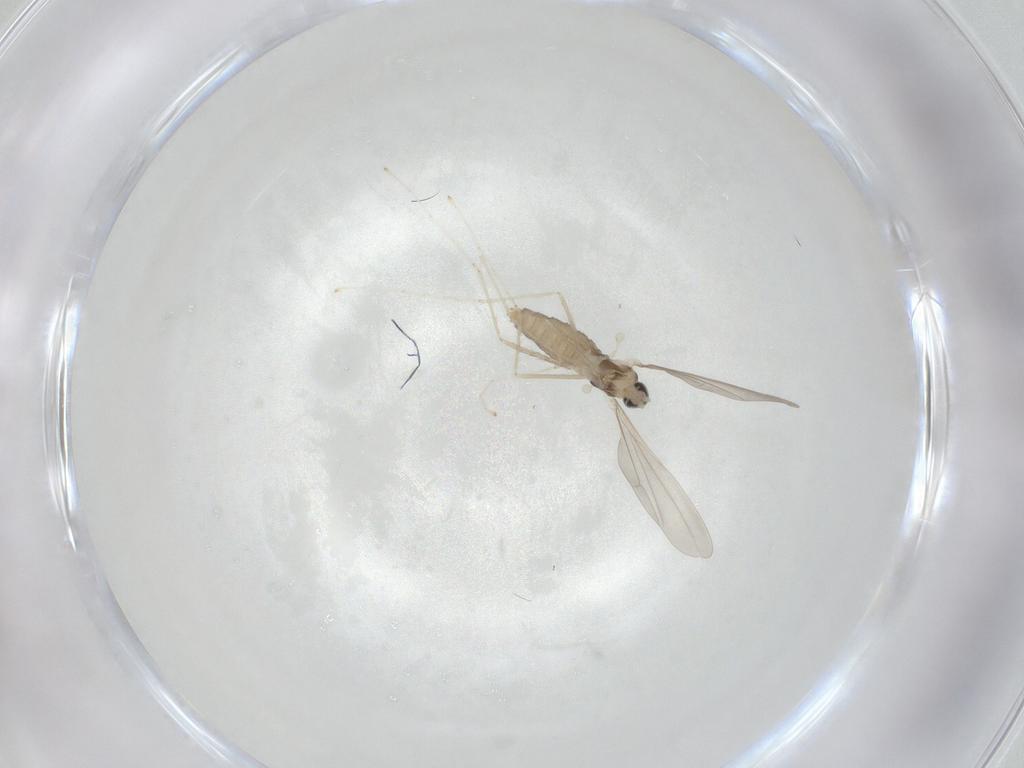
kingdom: Animalia
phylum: Arthropoda
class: Insecta
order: Diptera
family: Cecidomyiidae
